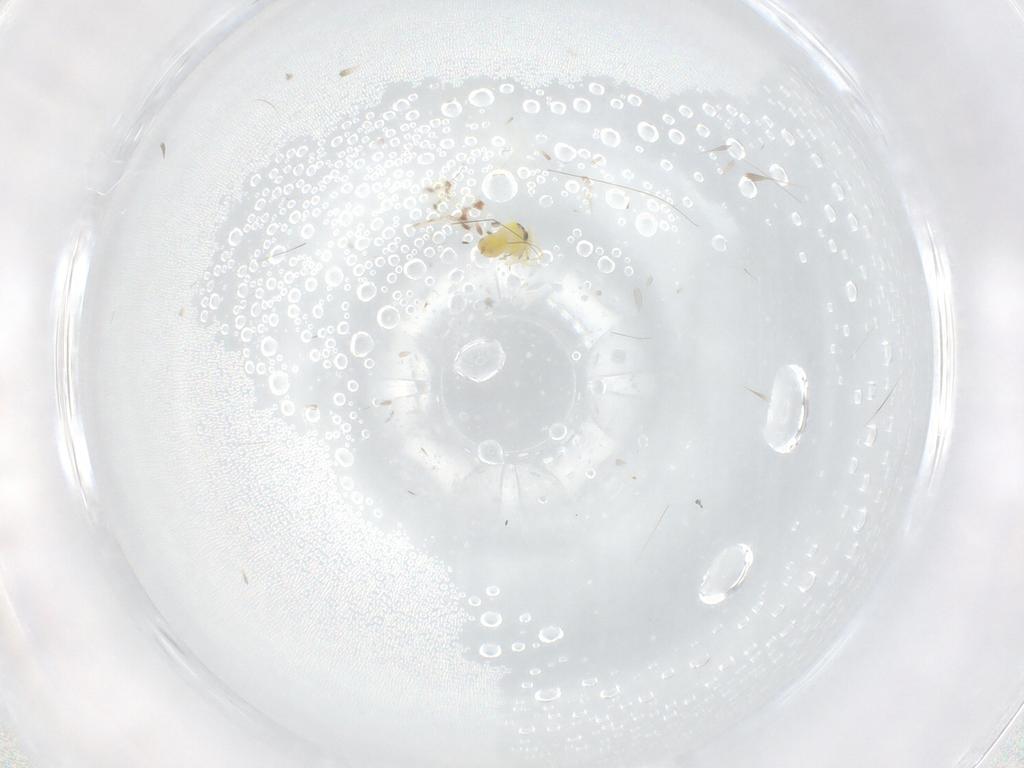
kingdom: Animalia
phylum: Arthropoda
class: Insecta
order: Hemiptera
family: Aleyrodidae
